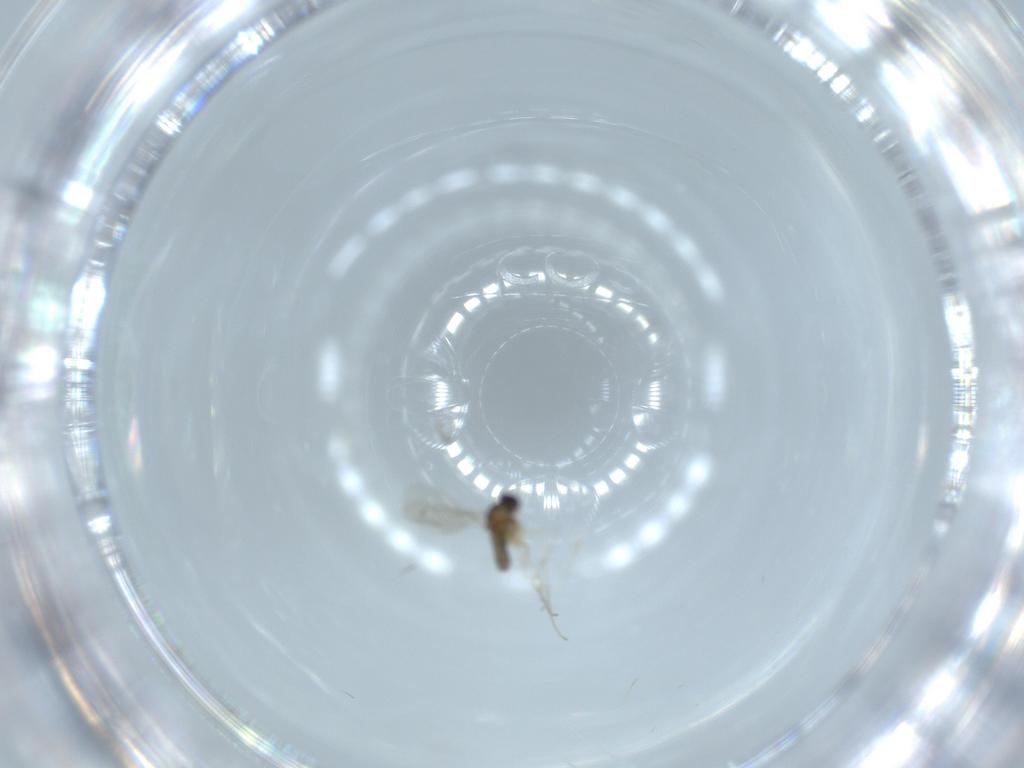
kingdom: Animalia
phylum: Arthropoda
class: Insecta
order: Diptera
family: Cecidomyiidae
